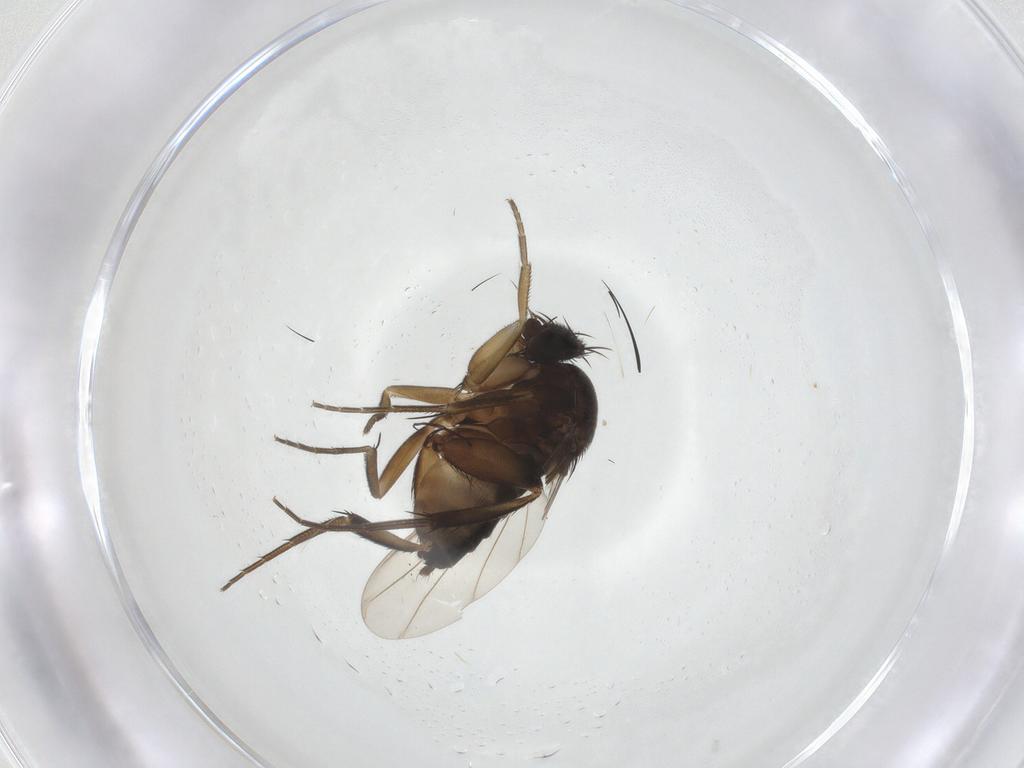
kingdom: Animalia
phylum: Arthropoda
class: Insecta
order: Diptera
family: Phoridae
